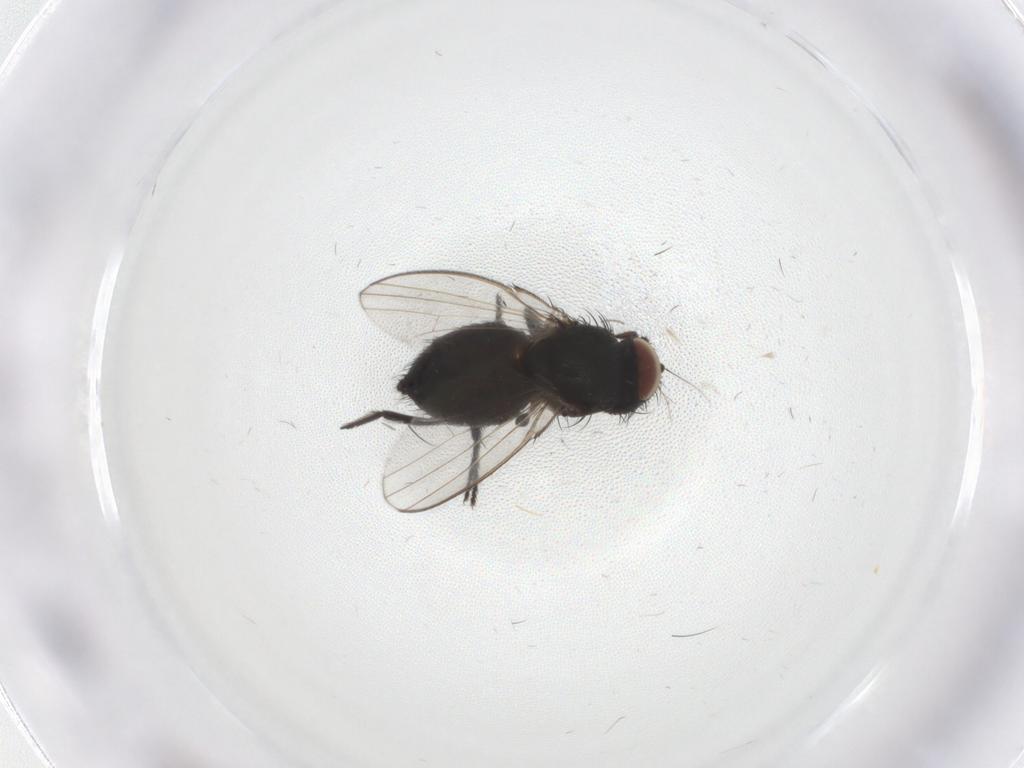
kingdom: Animalia
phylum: Arthropoda
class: Insecta
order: Diptera
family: Milichiidae
